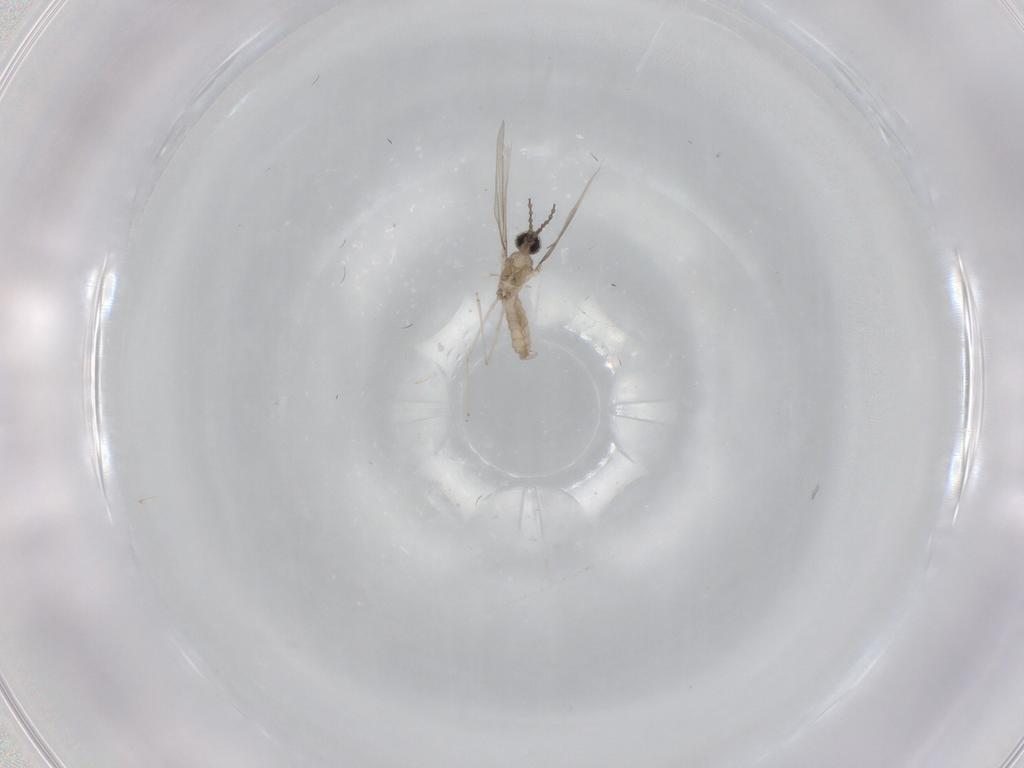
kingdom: Animalia
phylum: Arthropoda
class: Insecta
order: Diptera
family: Cecidomyiidae
